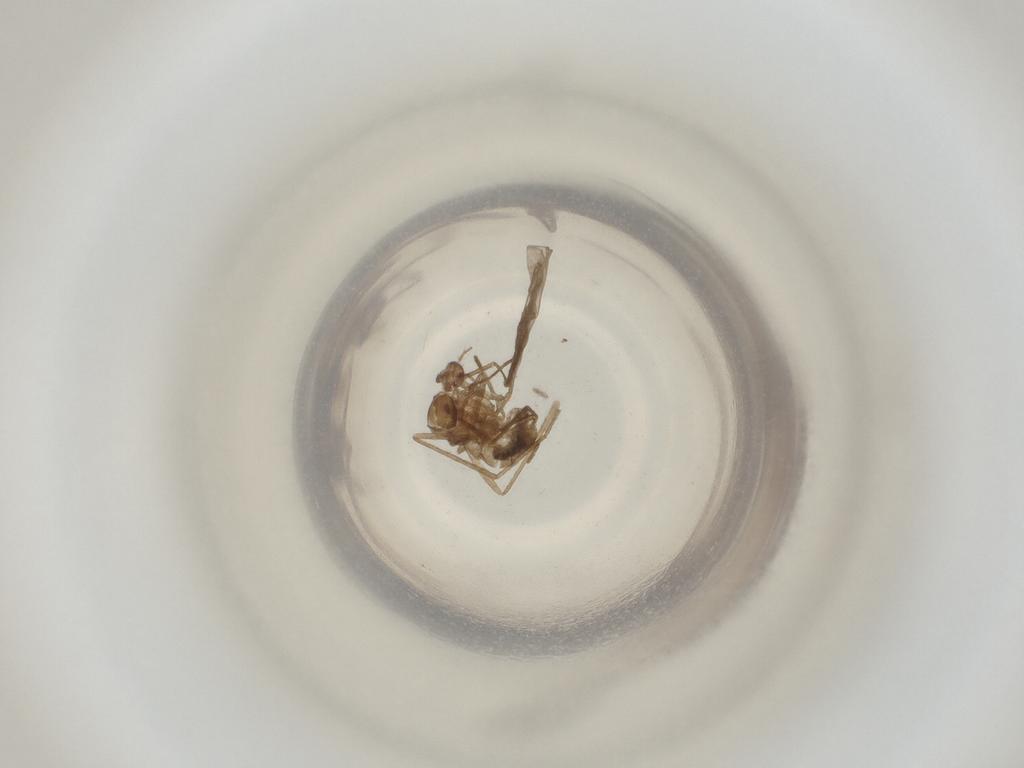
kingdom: Animalia
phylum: Arthropoda
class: Insecta
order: Diptera
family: Cecidomyiidae
